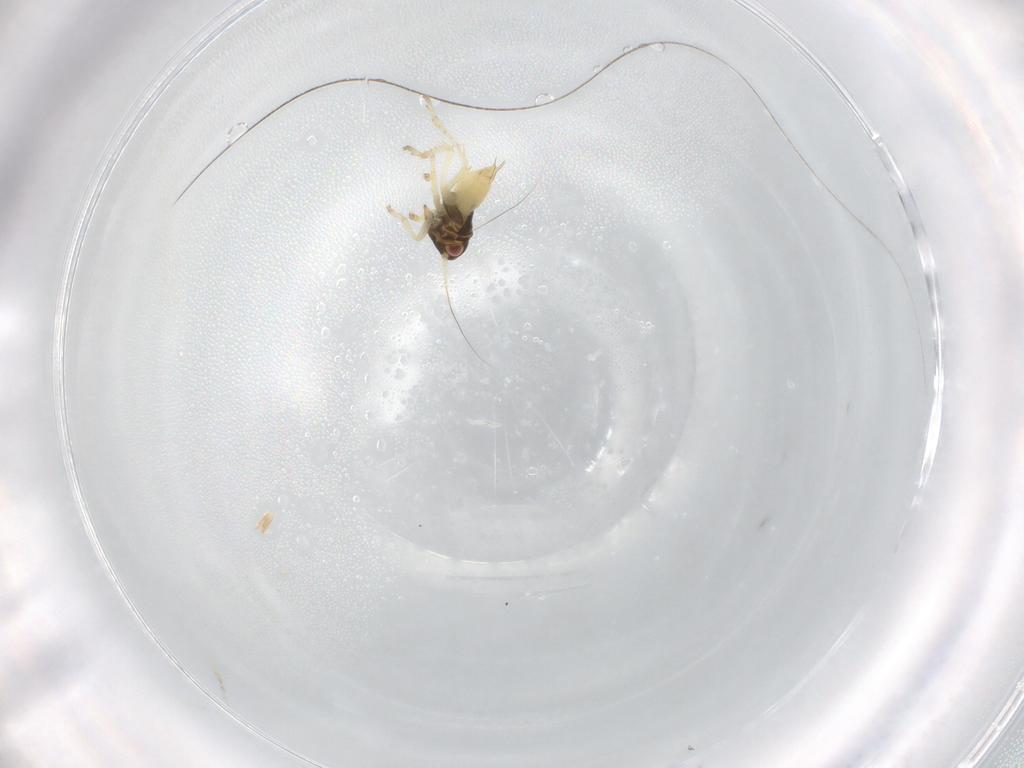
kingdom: Animalia
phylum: Arthropoda
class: Insecta
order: Hemiptera
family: Cicadellidae
